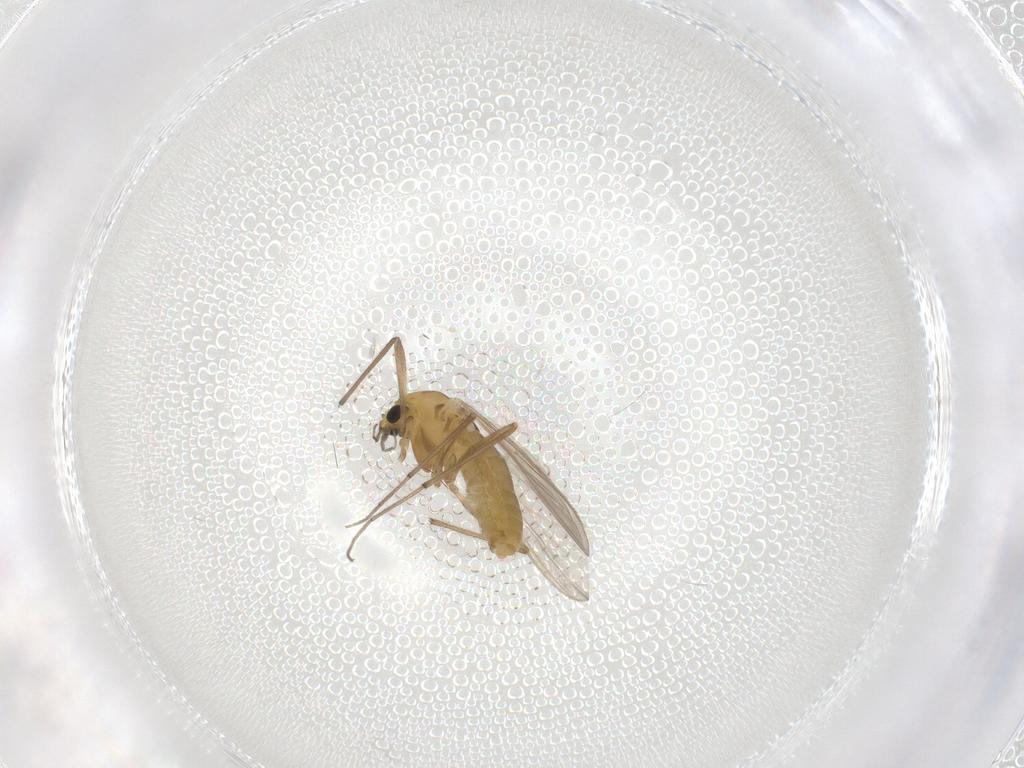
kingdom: Animalia
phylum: Arthropoda
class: Insecta
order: Diptera
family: Chironomidae
